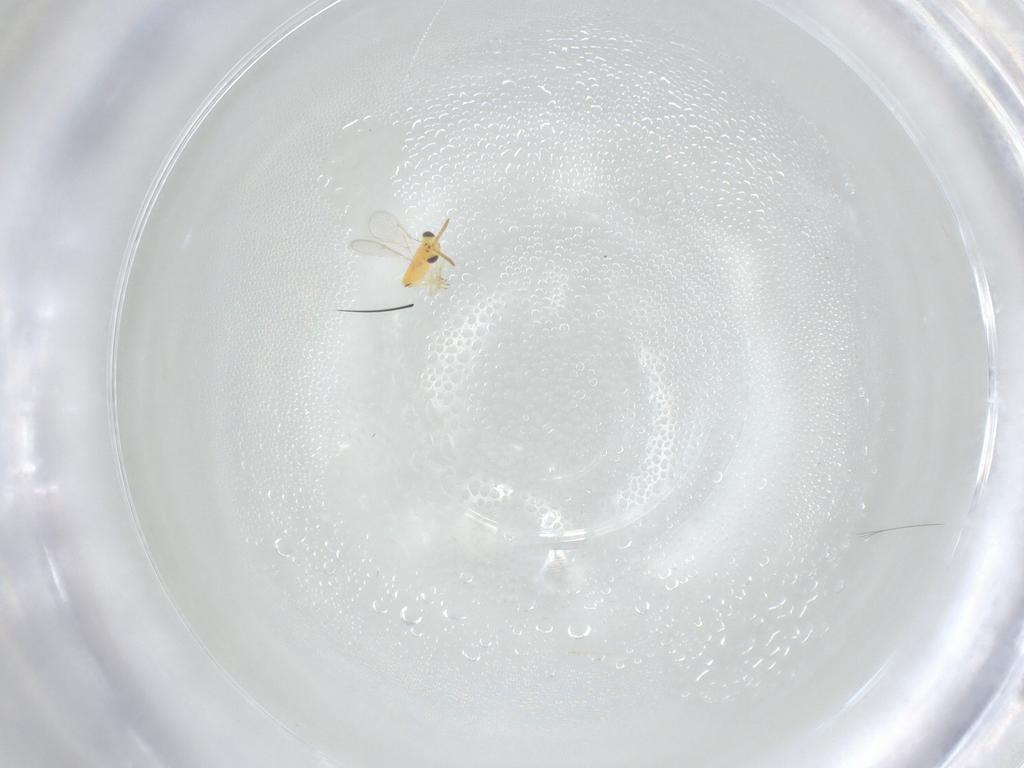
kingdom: Animalia
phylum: Arthropoda
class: Insecta
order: Hymenoptera
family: Aphelinidae
